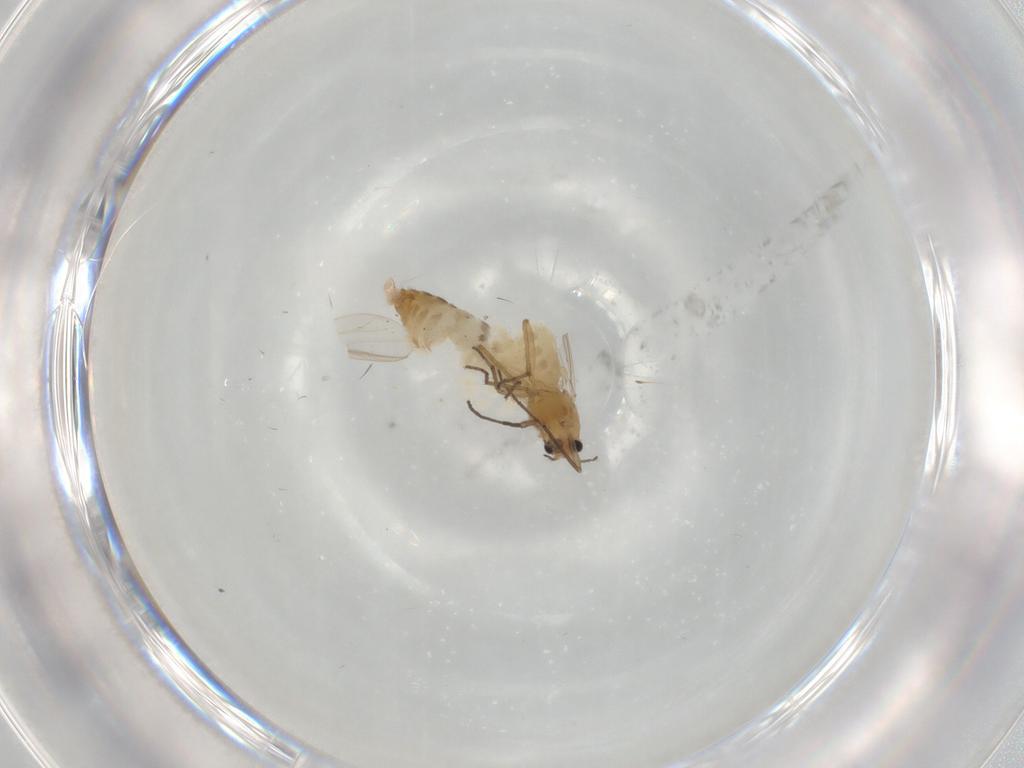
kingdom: Animalia
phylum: Arthropoda
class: Insecta
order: Diptera
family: Chironomidae
